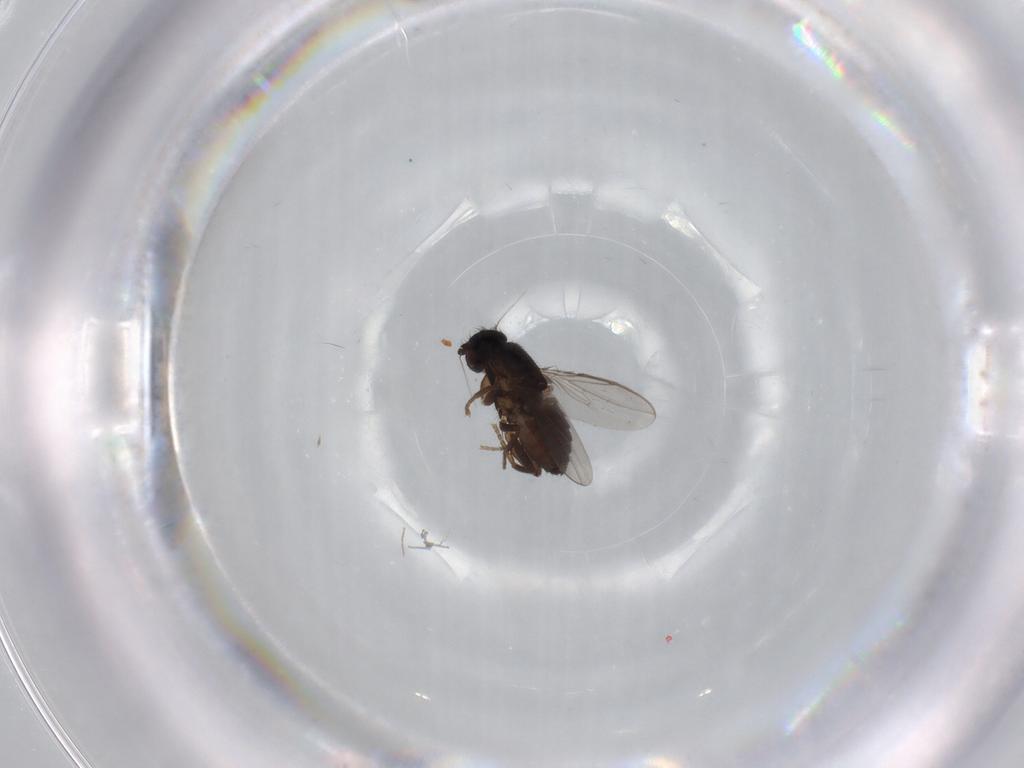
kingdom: Animalia
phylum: Arthropoda
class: Insecta
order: Diptera
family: Sphaeroceridae
